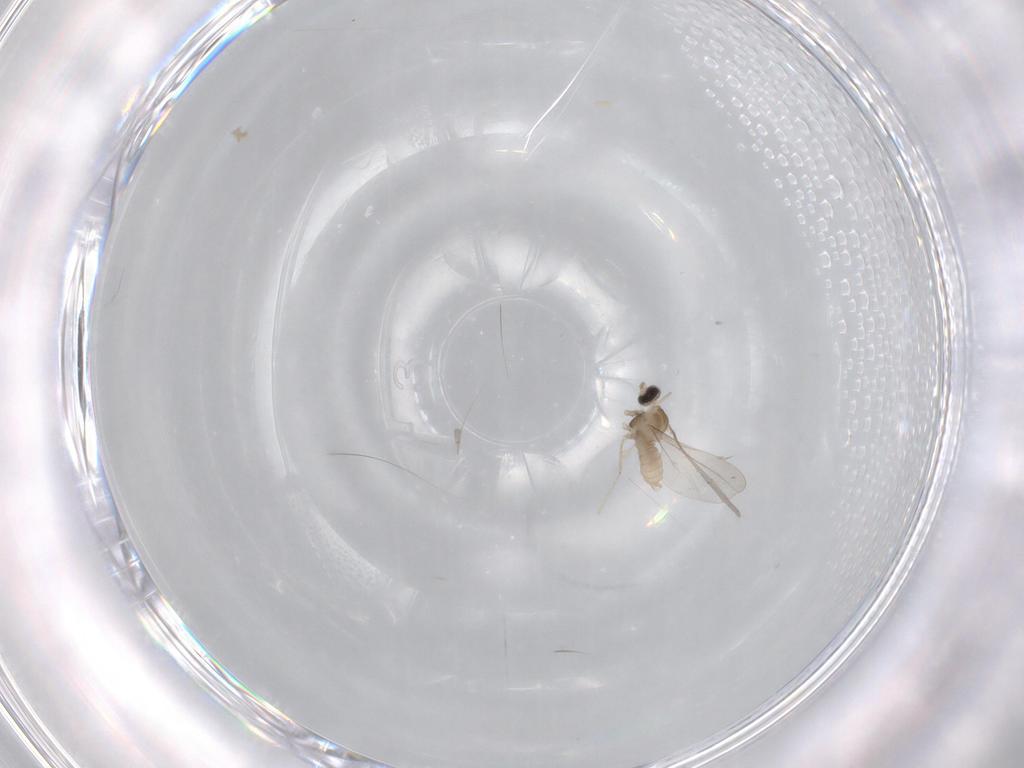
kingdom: Animalia
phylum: Arthropoda
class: Insecta
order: Diptera
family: Cecidomyiidae
